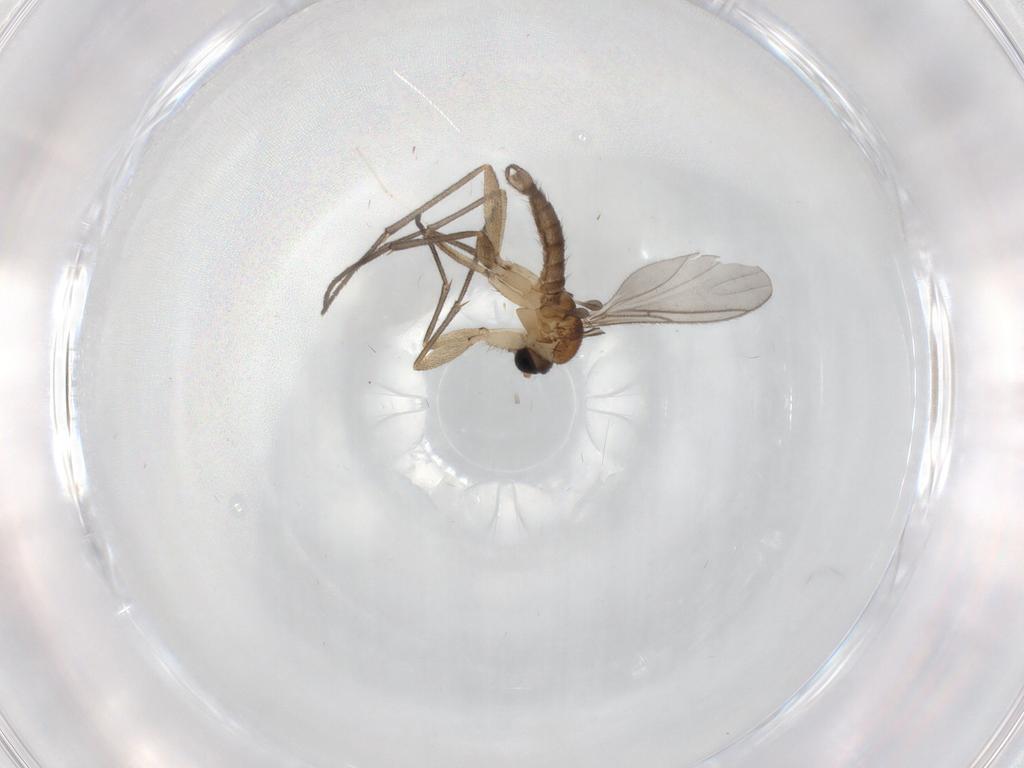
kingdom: Animalia
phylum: Arthropoda
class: Insecta
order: Diptera
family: Sciaridae
